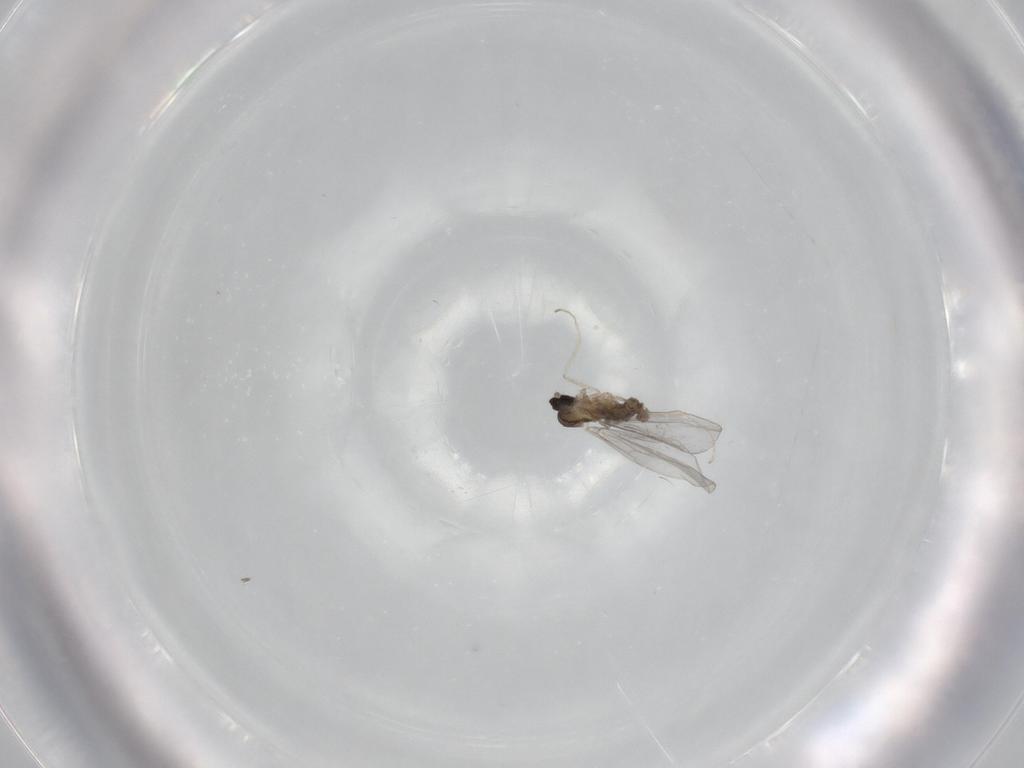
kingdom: Animalia
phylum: Arthropoda
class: Insecta
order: Diptera
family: Cecidomyiidae
